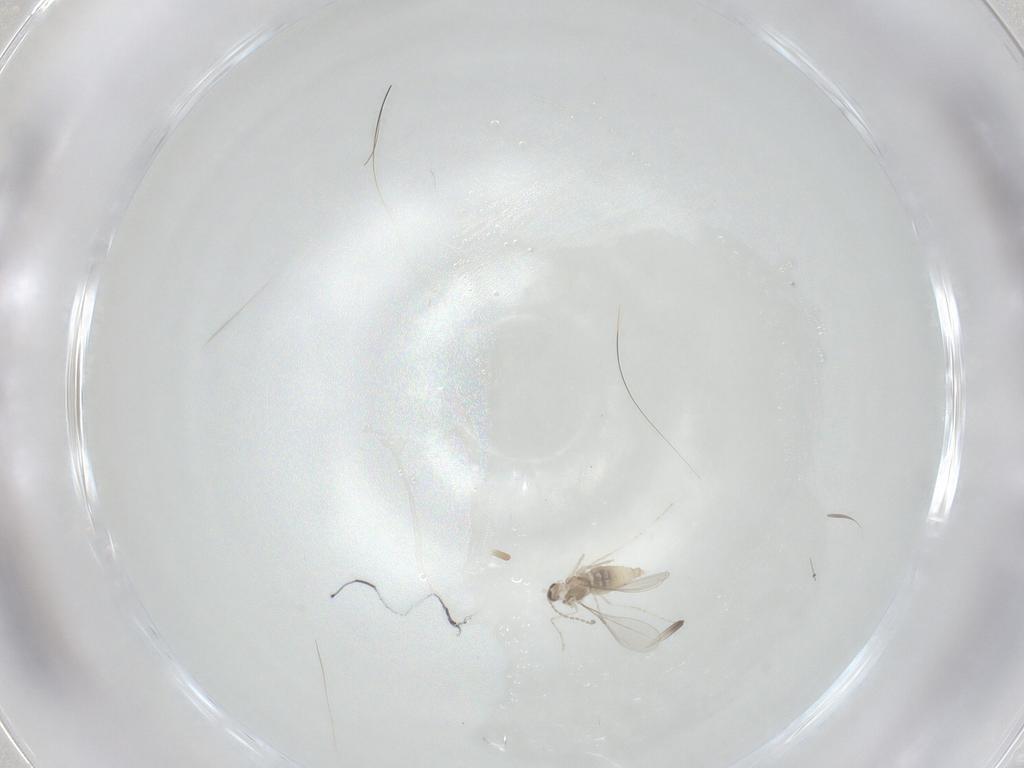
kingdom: Animalia
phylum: Arthropoda
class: Insecta
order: Diptera
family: Cecidomyiidae
